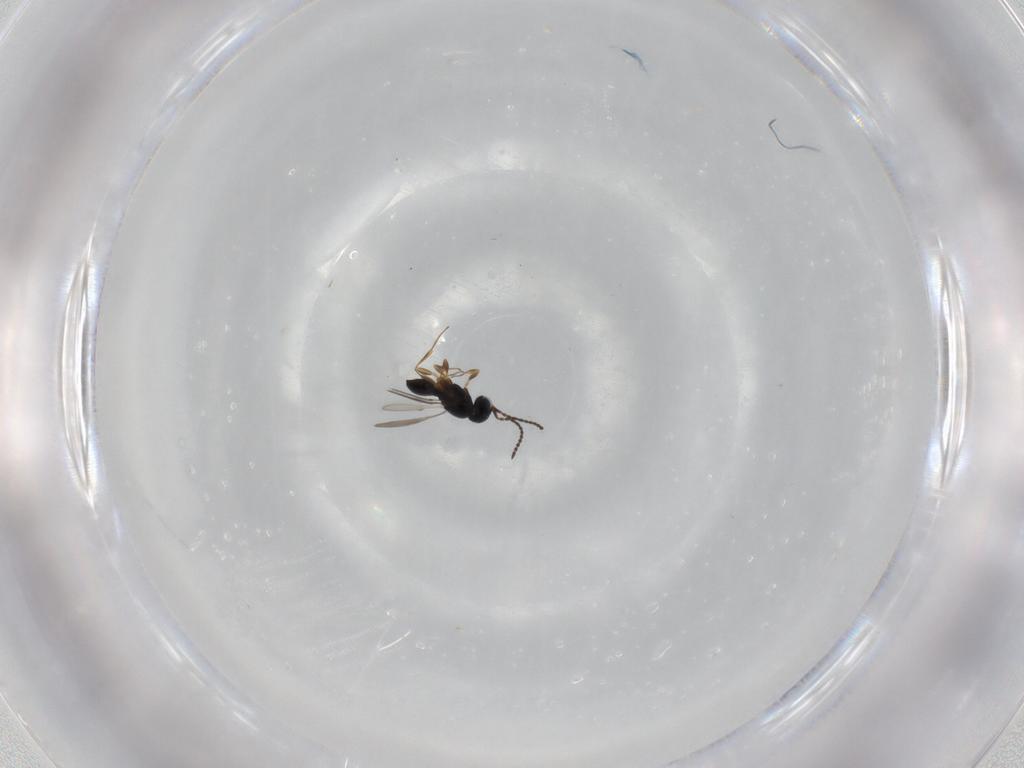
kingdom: Animalia
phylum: Arthropoda
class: Insecta
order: Hymenoptera
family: Scelionidae
